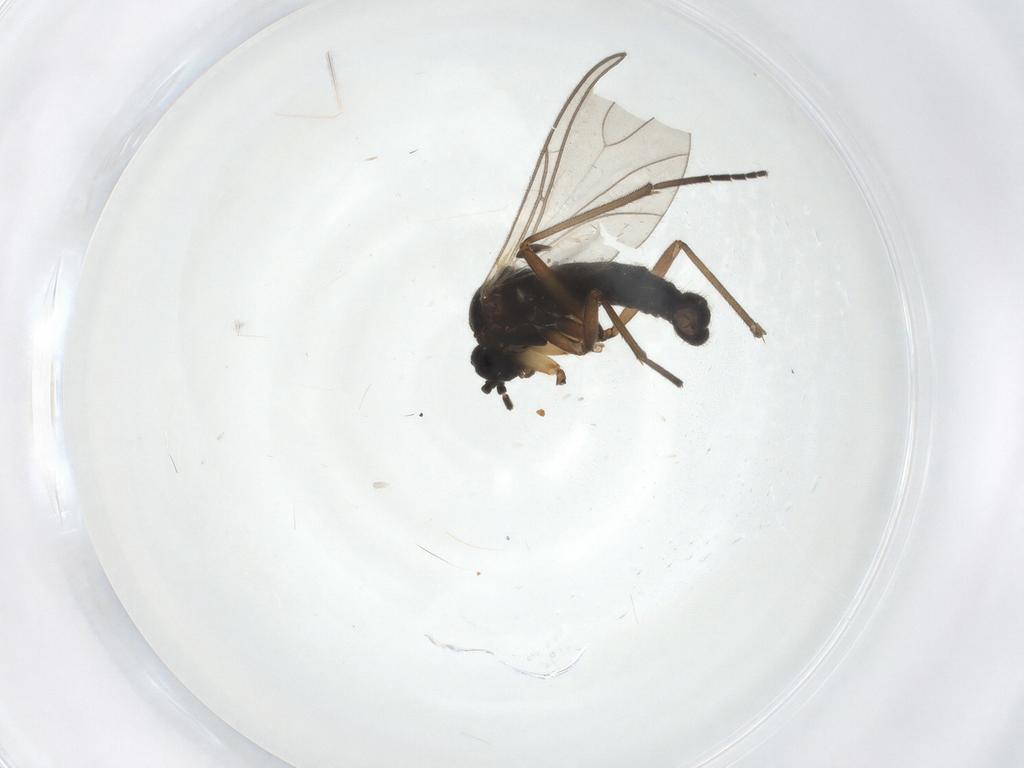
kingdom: Animalia
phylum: Arthropoda
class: Insecta
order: Diptera
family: Sciaridae
